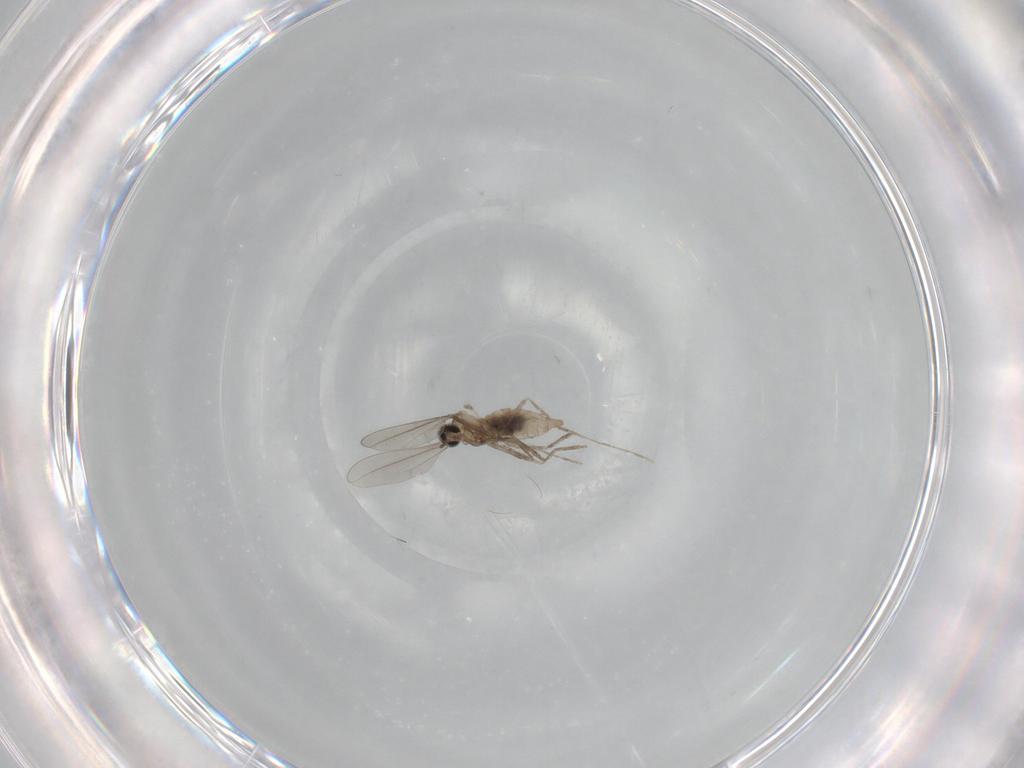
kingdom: Animalia
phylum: Arthropoda
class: Insecta
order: Diptera
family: Cecidomyiidae
